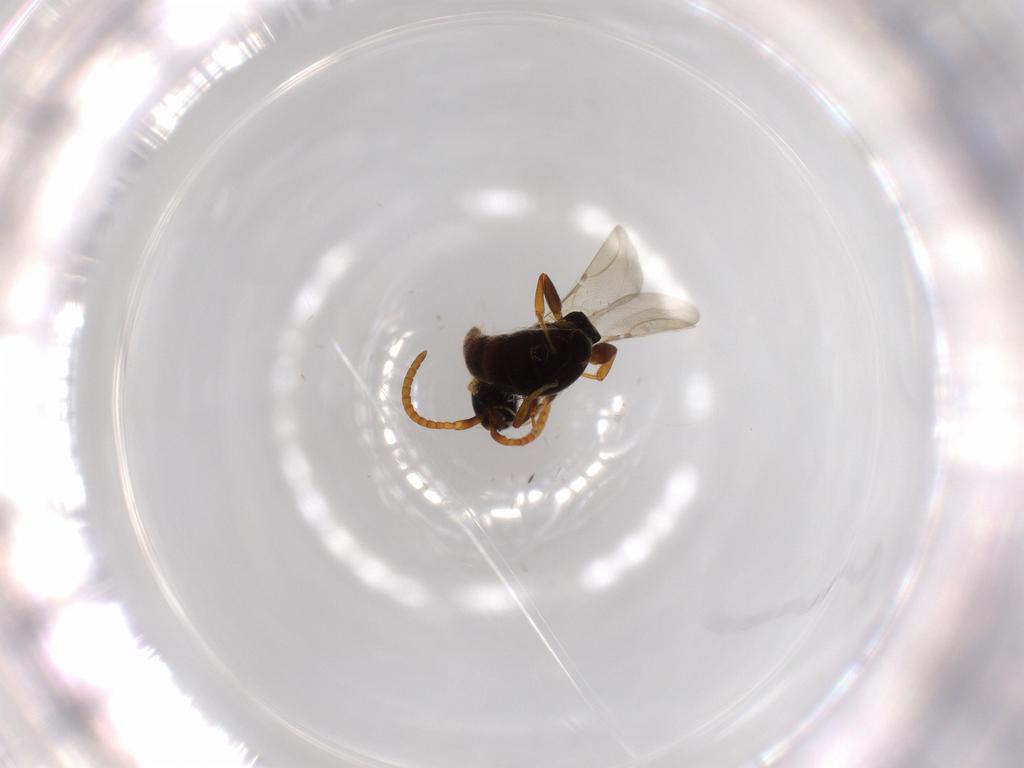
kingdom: Animalia
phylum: Arthropoda
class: Insecta
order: Hymenoptera
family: Bethylidae
